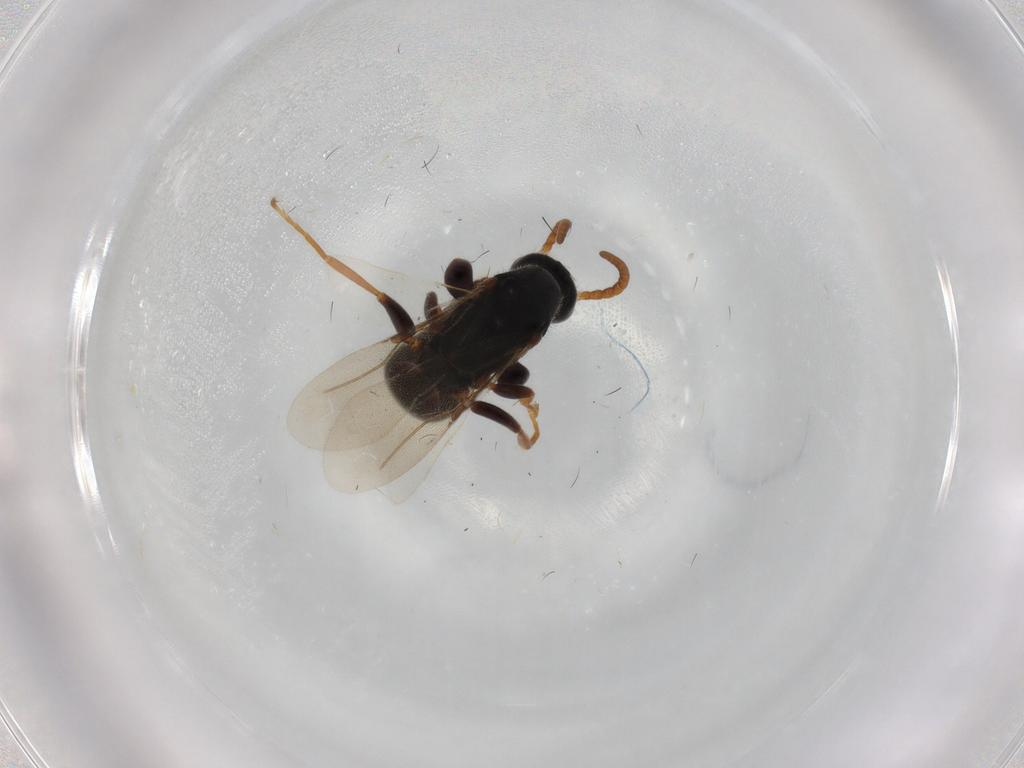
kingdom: Animalia
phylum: Arthropoda
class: Insecta
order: Hymenoptera
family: Bethylidae
